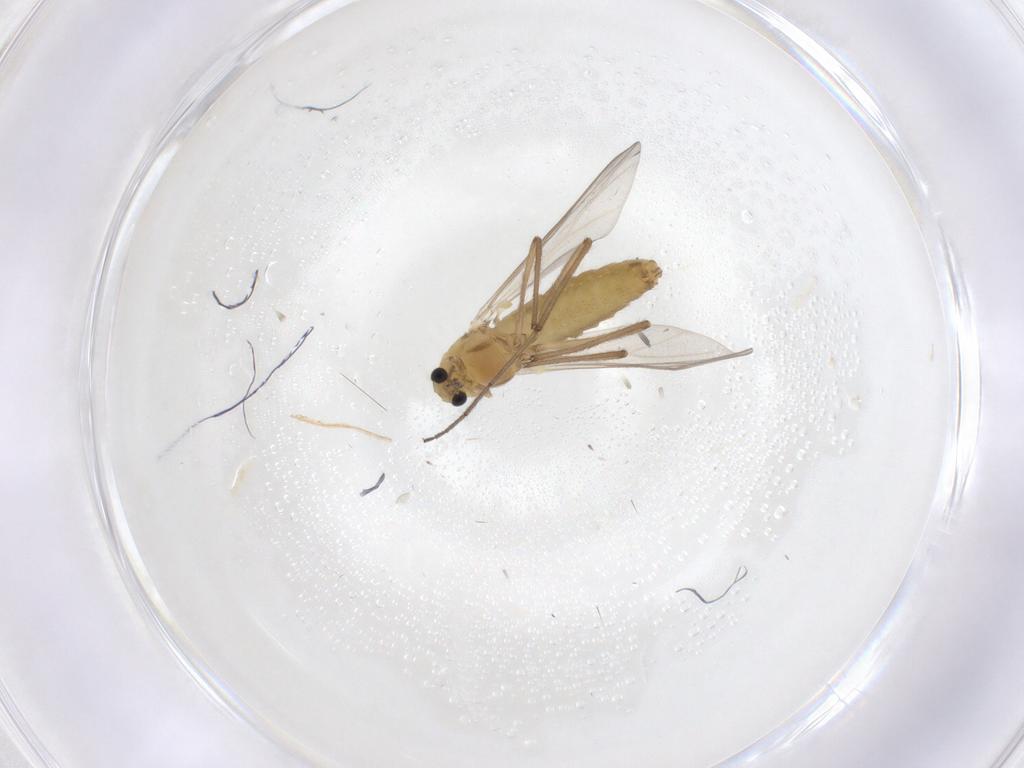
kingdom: Animalia
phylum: Arthropoda
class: Insecta
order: Diptera
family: Chironomidae
